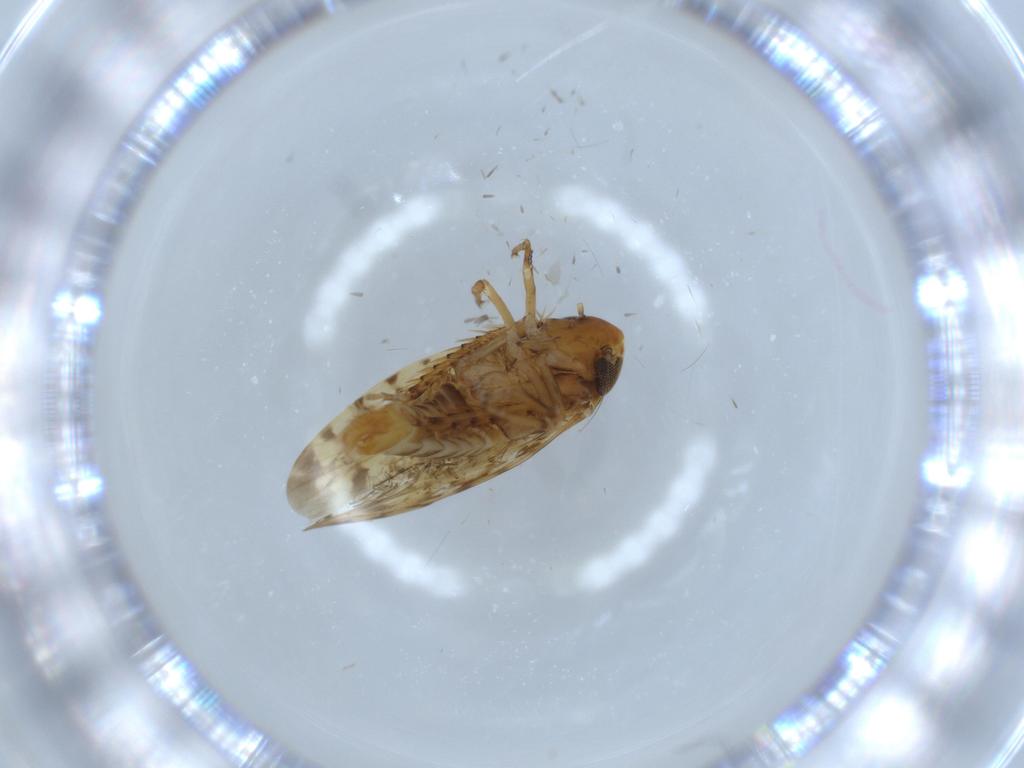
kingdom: Animalia
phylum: Arthropoda
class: Insecta
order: Hemiptera
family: Cicadellidae
